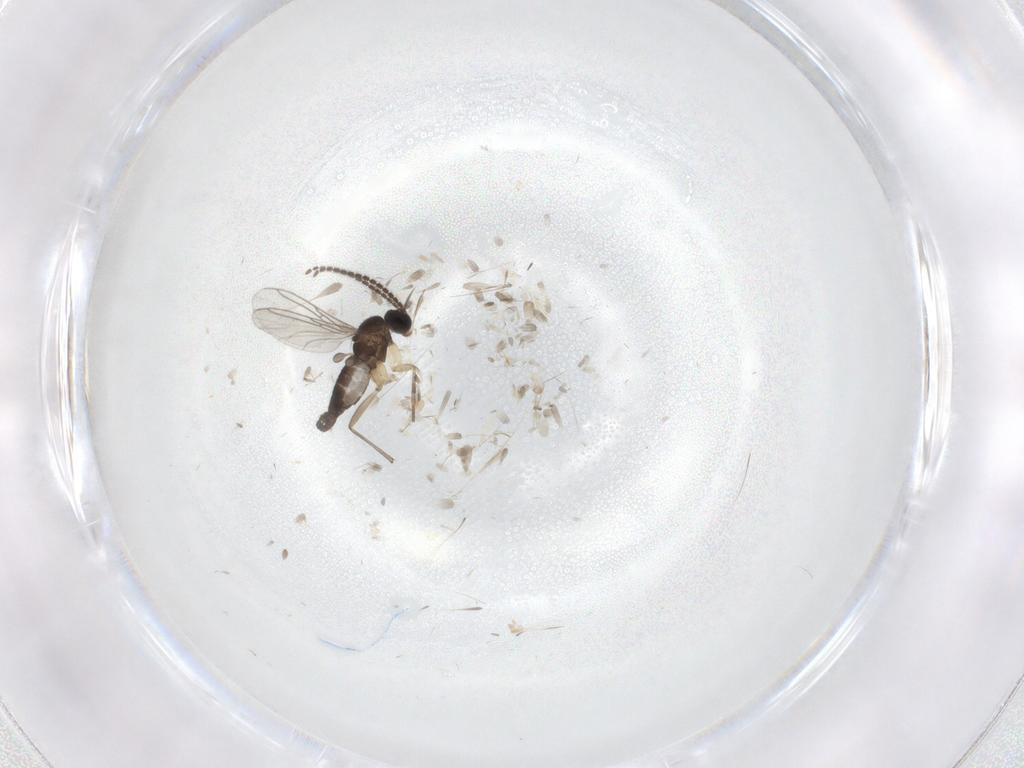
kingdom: Animalia
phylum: Arthropoda
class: Insecta
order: Diptera
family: Sciaridae
